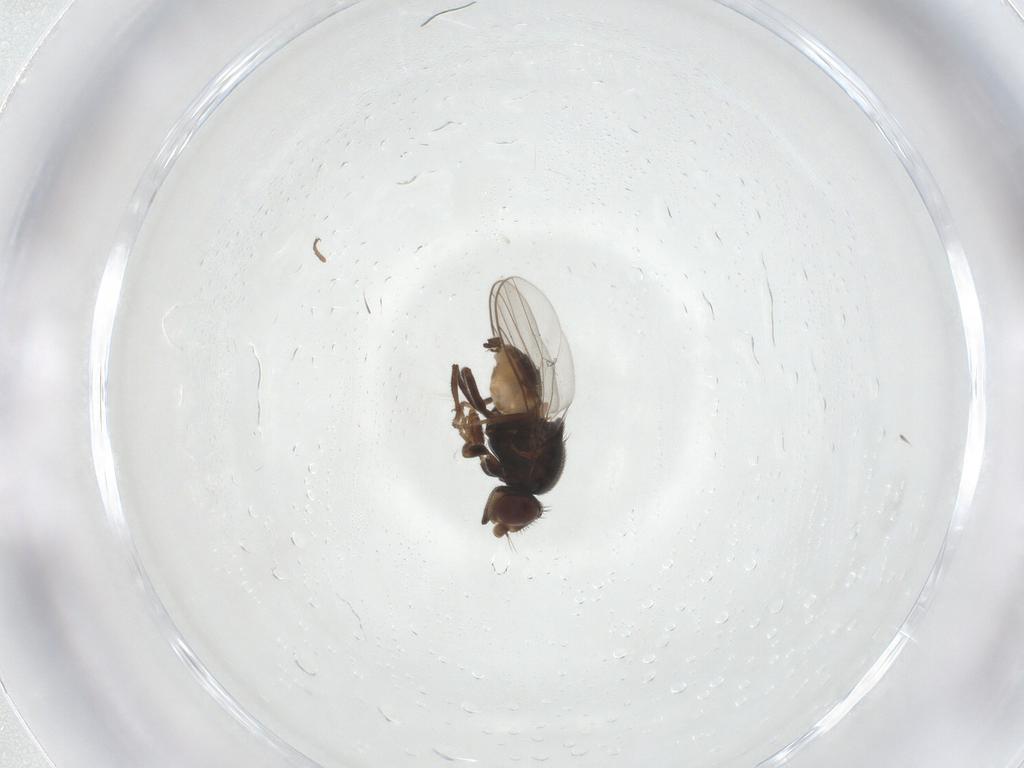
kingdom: Animalia
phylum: Arthropoda
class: Insecta
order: Diptera
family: Chloropidae
